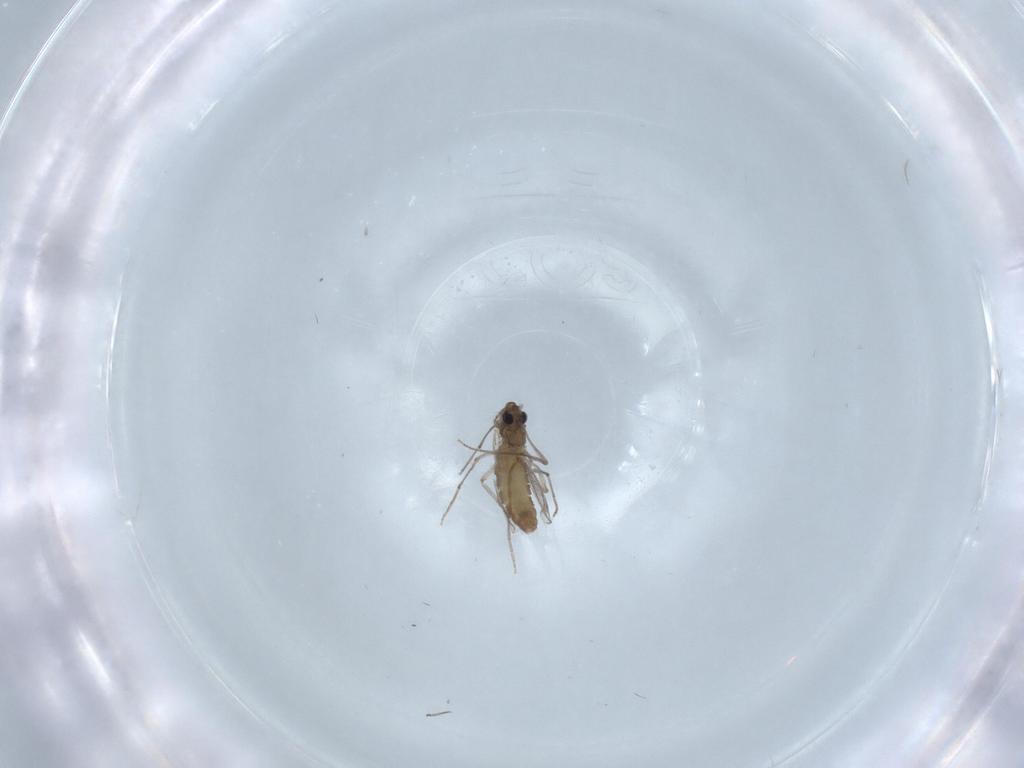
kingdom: Animalia
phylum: Arthropoda
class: Insecta
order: Diptera
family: Chironomidae
